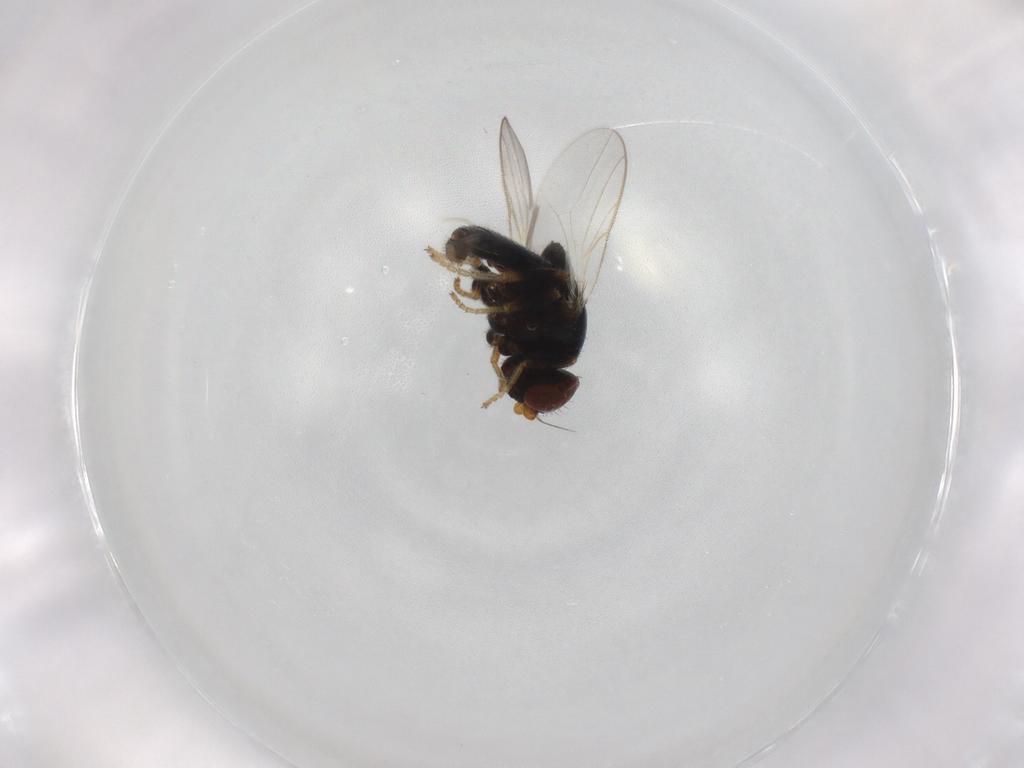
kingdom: Animalia
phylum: Arthropoda
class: Insecta
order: Diptera
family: Chloropidae
